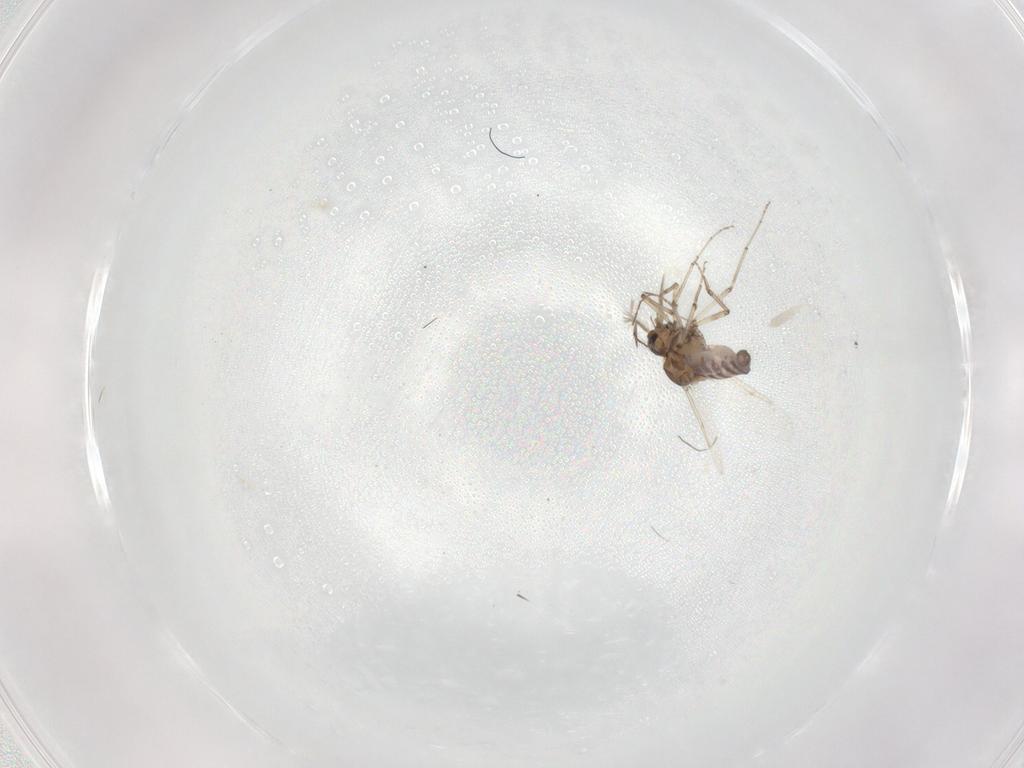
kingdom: Animalia
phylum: Arthropoda
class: Insecta
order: Diptera
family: Ceratopogonidae
